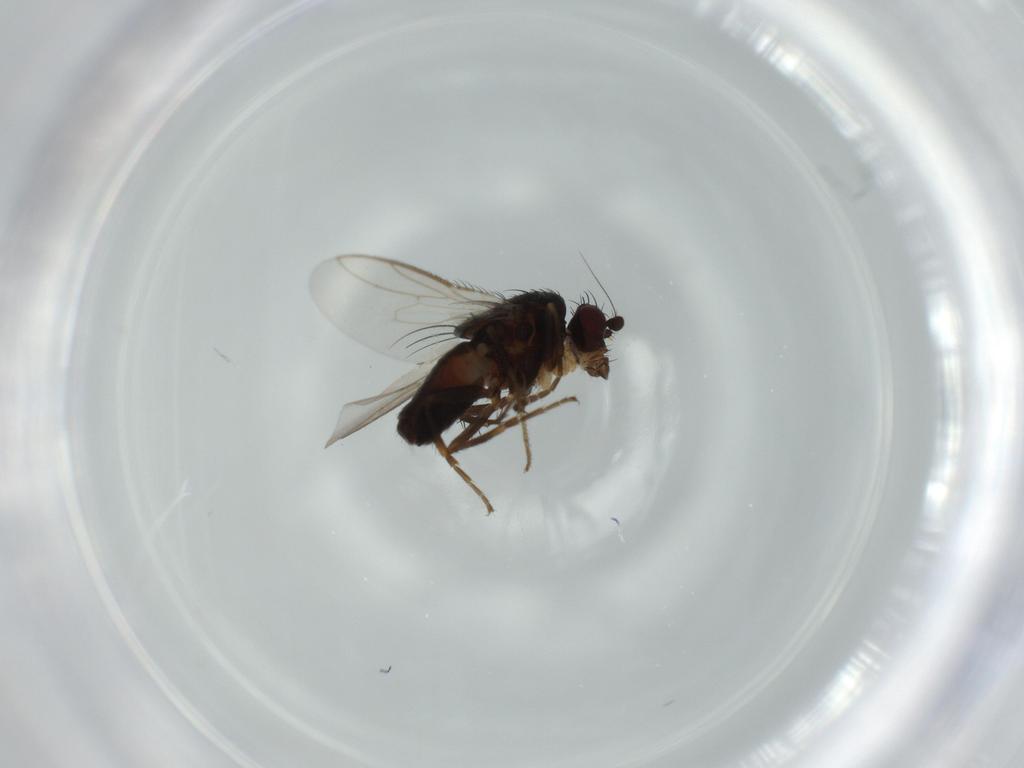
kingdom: Animalia
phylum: Arthropoda
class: Insecta
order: Diptera
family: Sphaeroceridae
